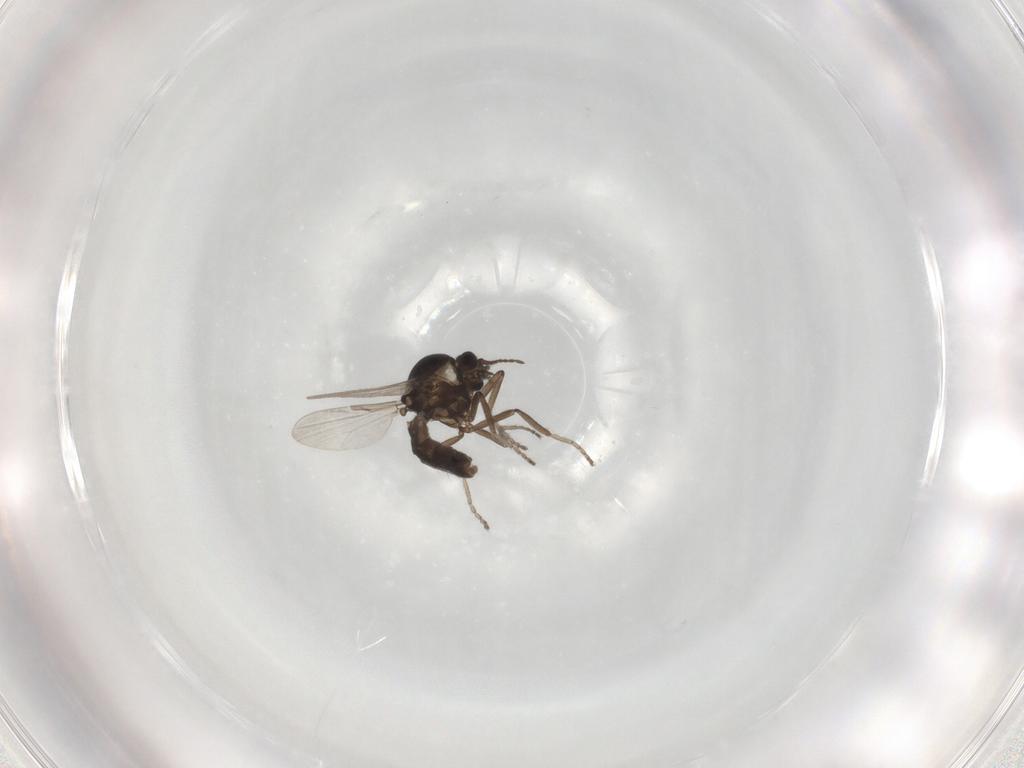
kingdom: Animalia
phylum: Arthropoda
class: Insecta
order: Diptera
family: Ceratopogonidae
